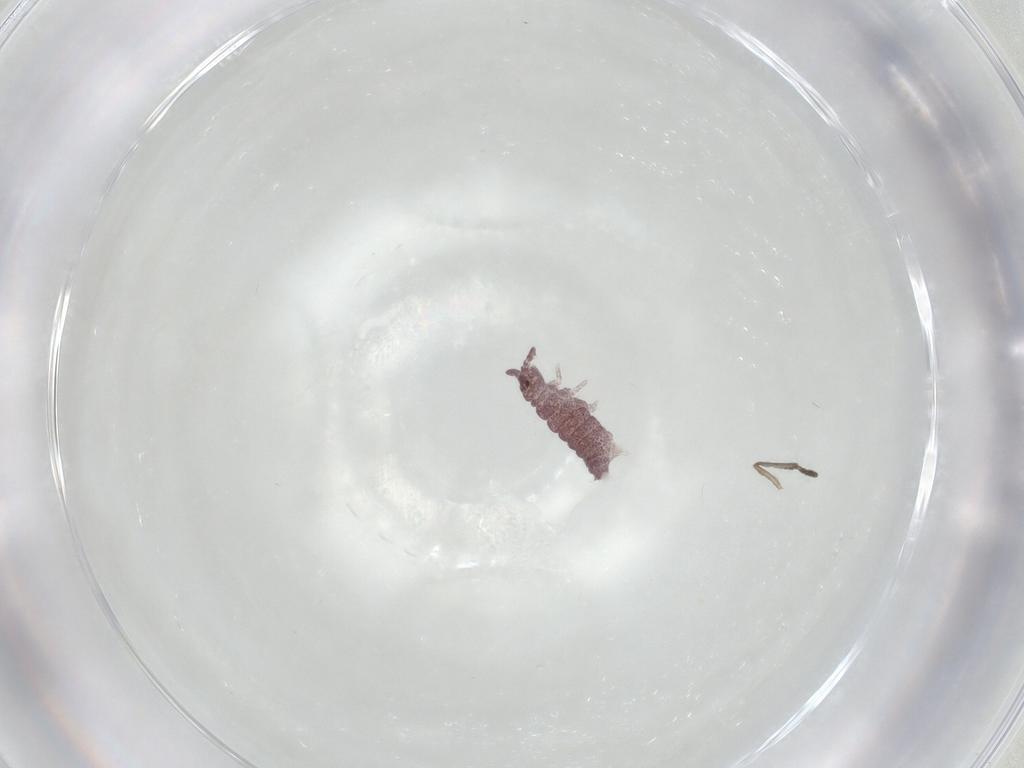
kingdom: Animalia
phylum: Arthropoda
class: Collembola
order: Poduromorpha
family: Hypogastruridae
